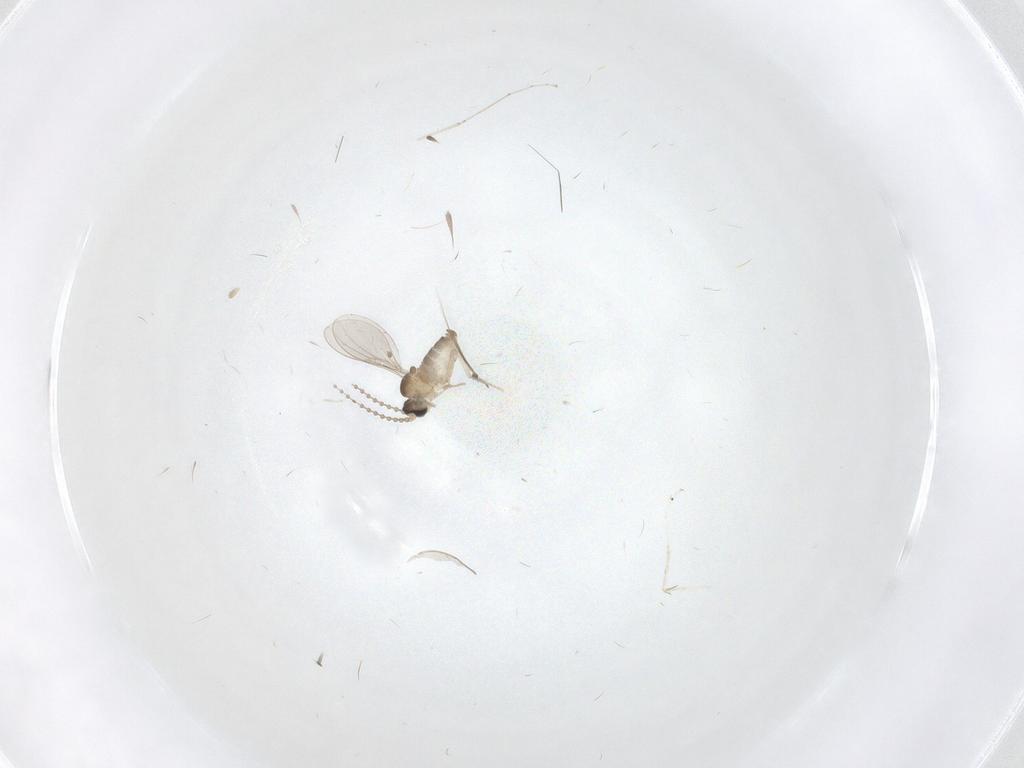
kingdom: Animalia
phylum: Arthropoda
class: Insecta
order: Diptera
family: Cecidomyiidae
